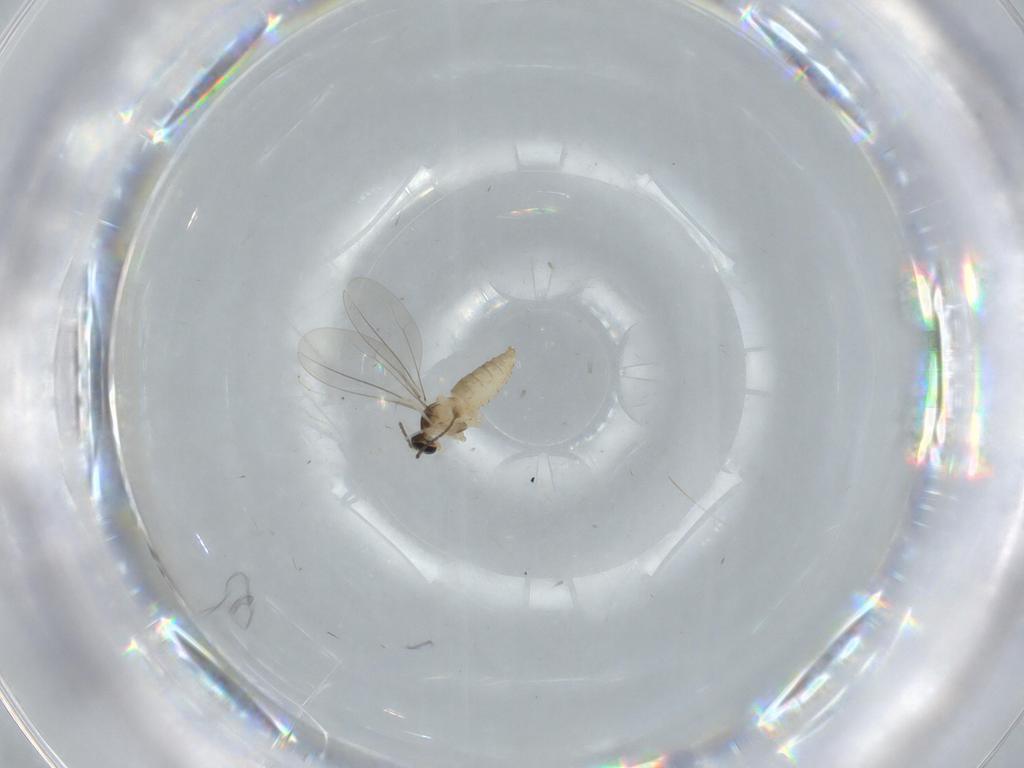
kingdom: Animalia
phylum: Arthropoda
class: Insecta
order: Diptera
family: Cecidomyiidae
